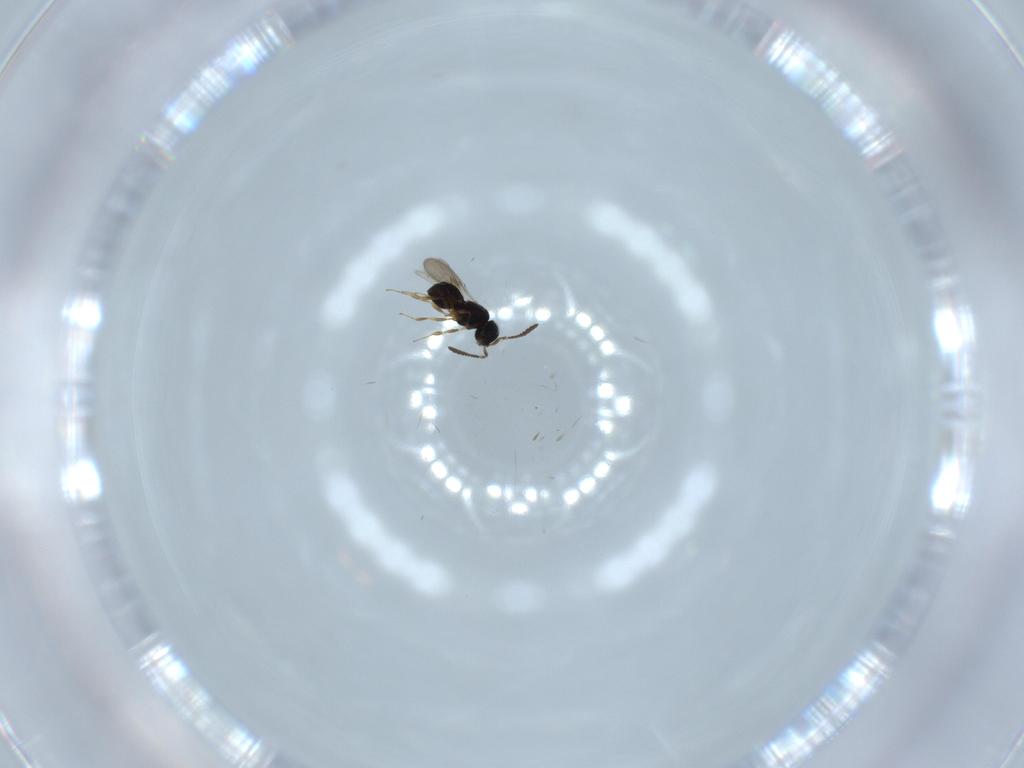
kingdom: Animalia
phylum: Arthropoda
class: Insecta
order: Hymenoptera
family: Scelionidae
